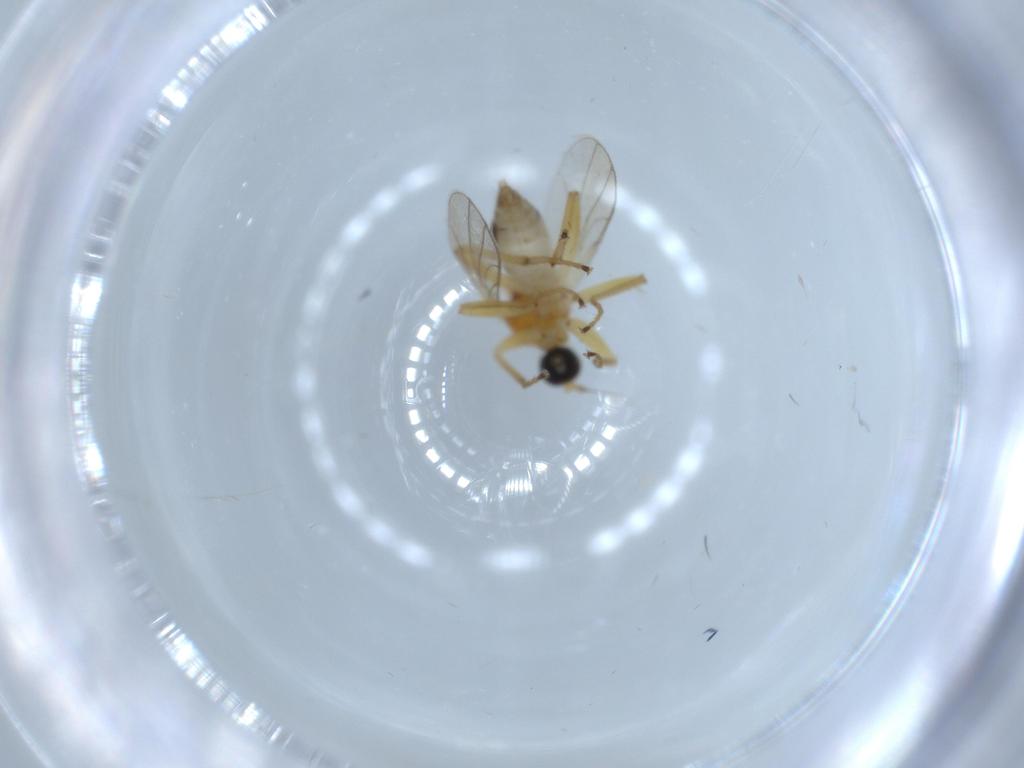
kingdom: Animalia
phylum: Arthropoda
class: Insecta
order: Diptera
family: Hybotidae
